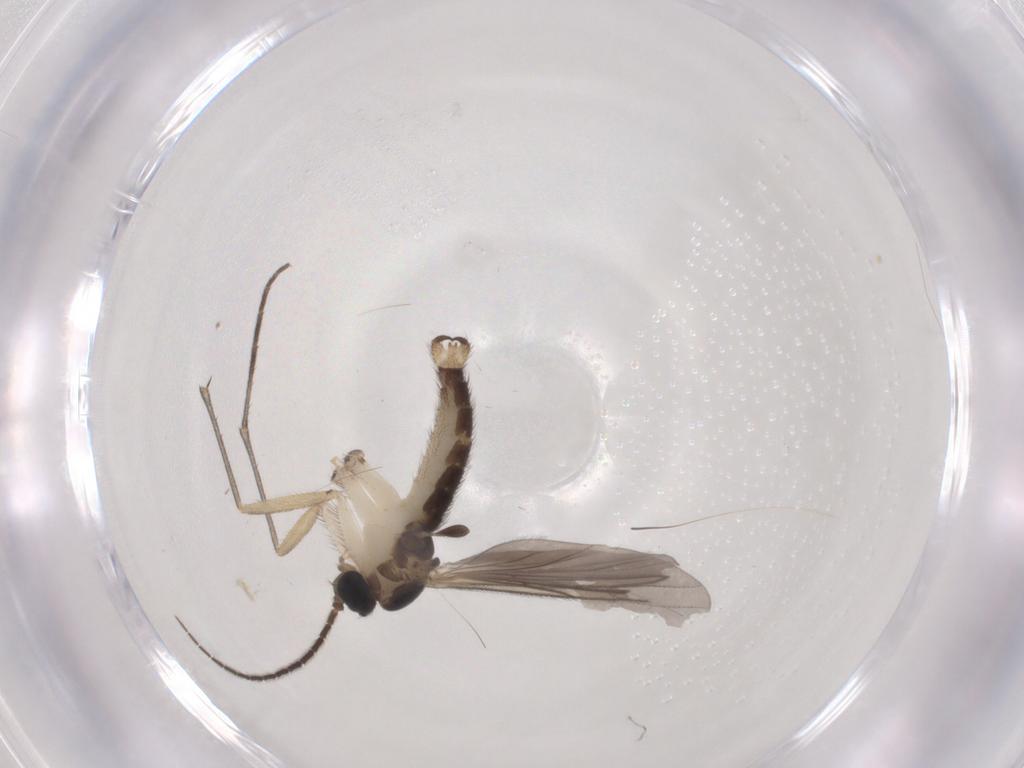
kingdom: Animalia
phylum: Arthropoda
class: Insecta
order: Diptera
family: Sciaridae
